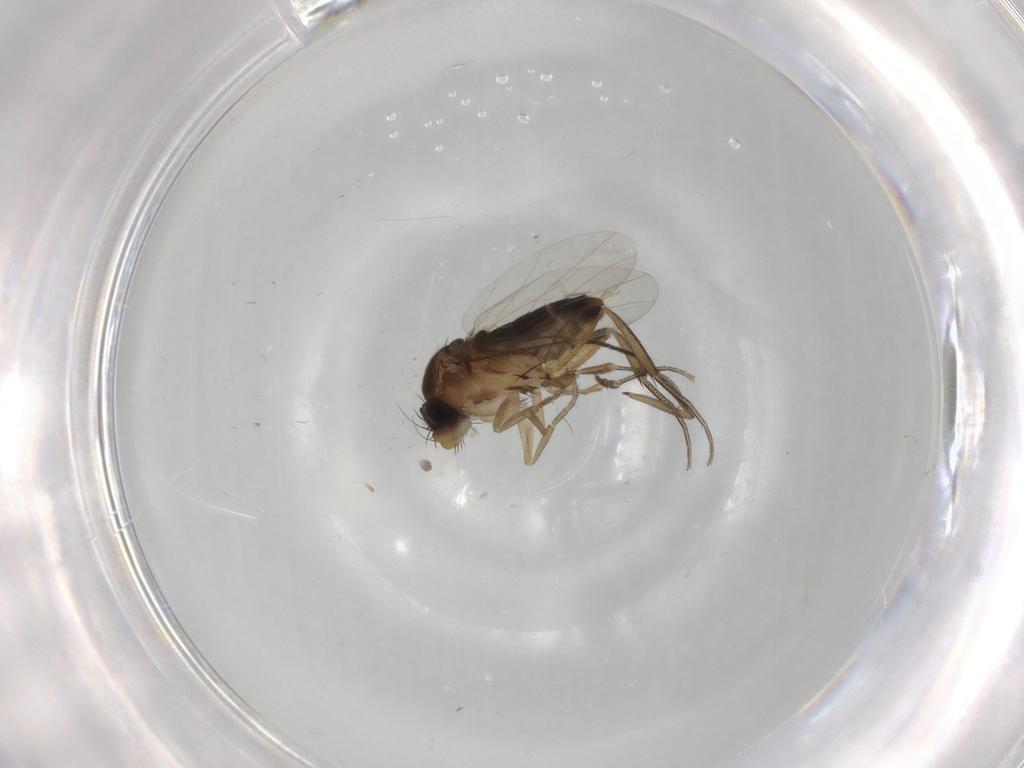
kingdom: Animalia
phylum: Arthropoda
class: Insecta
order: Diptera
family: Phoridae
